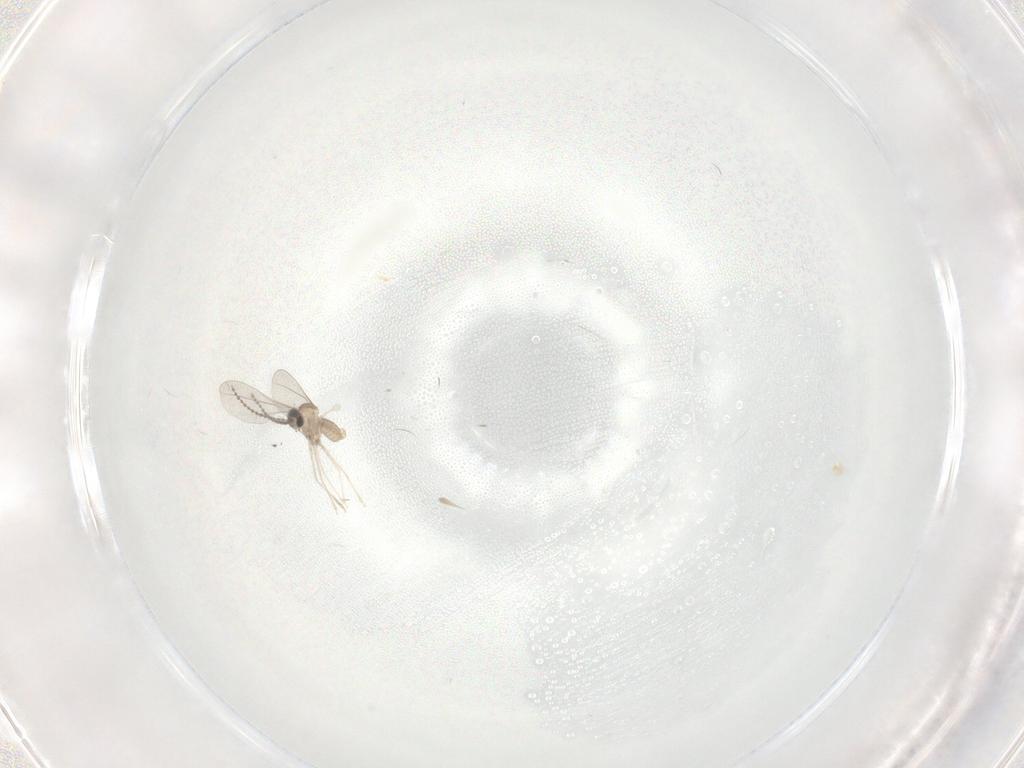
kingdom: Animalia
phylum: Arthropoda
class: Insecta
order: Diptera
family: Cecidomyiidae
